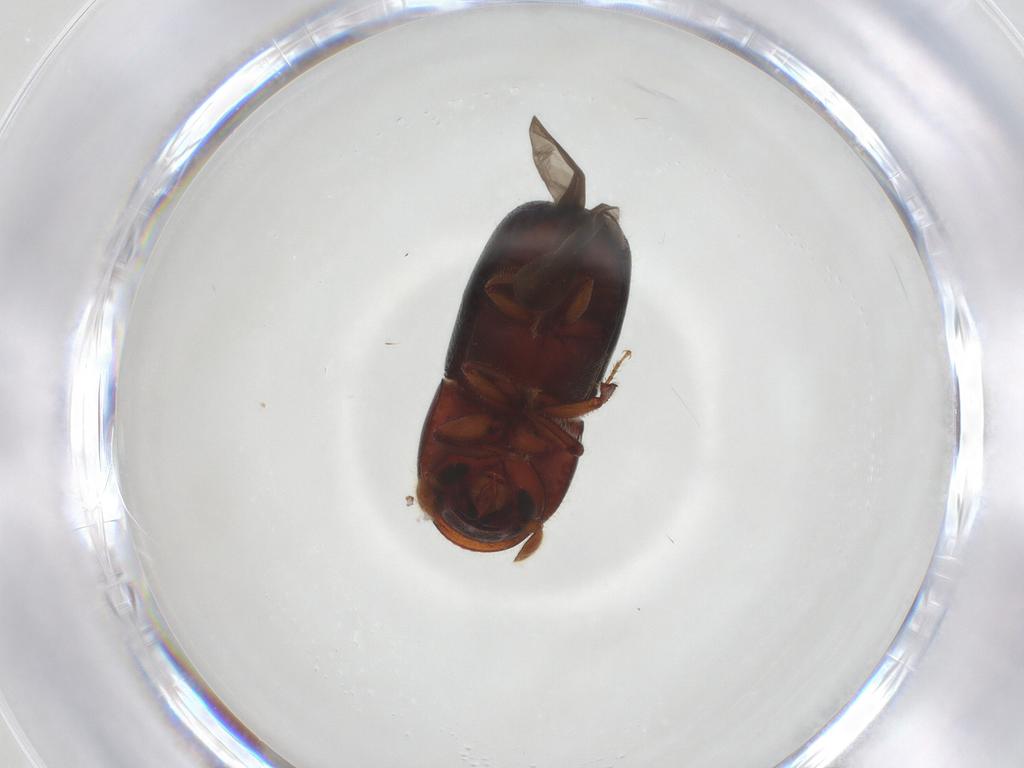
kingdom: Animalia
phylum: Arthropoda
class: Insecta
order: Coleoptera
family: Curculionidae
